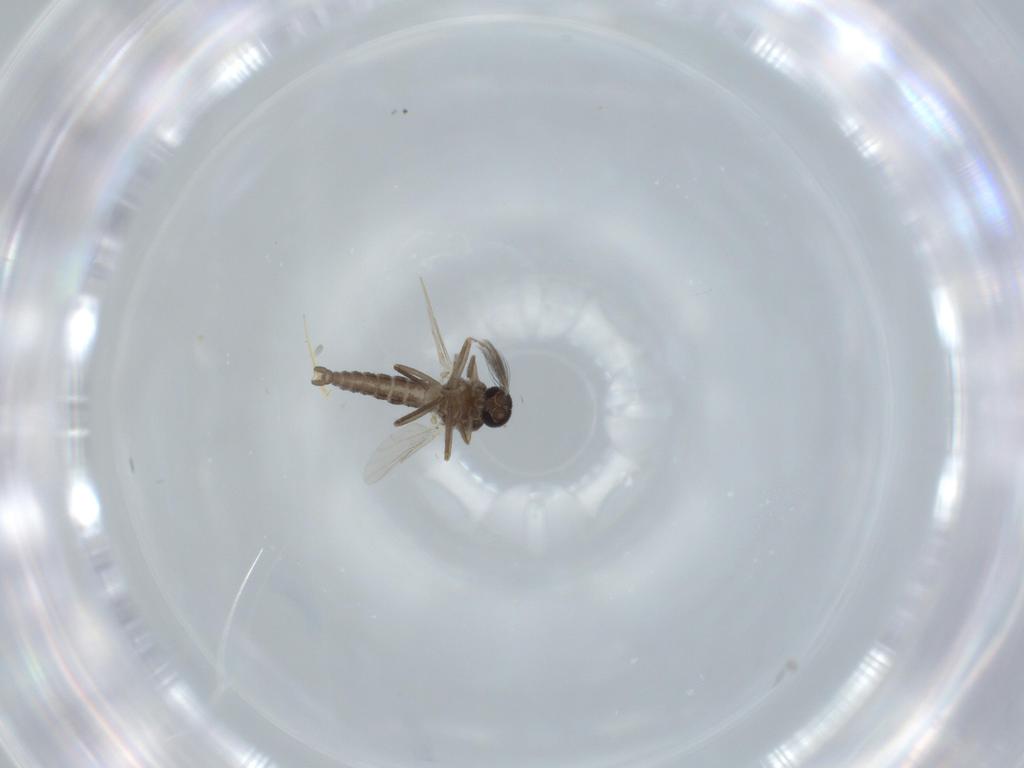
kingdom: Animalia
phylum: Arthropoda
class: Insecta
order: Diptera
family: Ceratopogonidae
